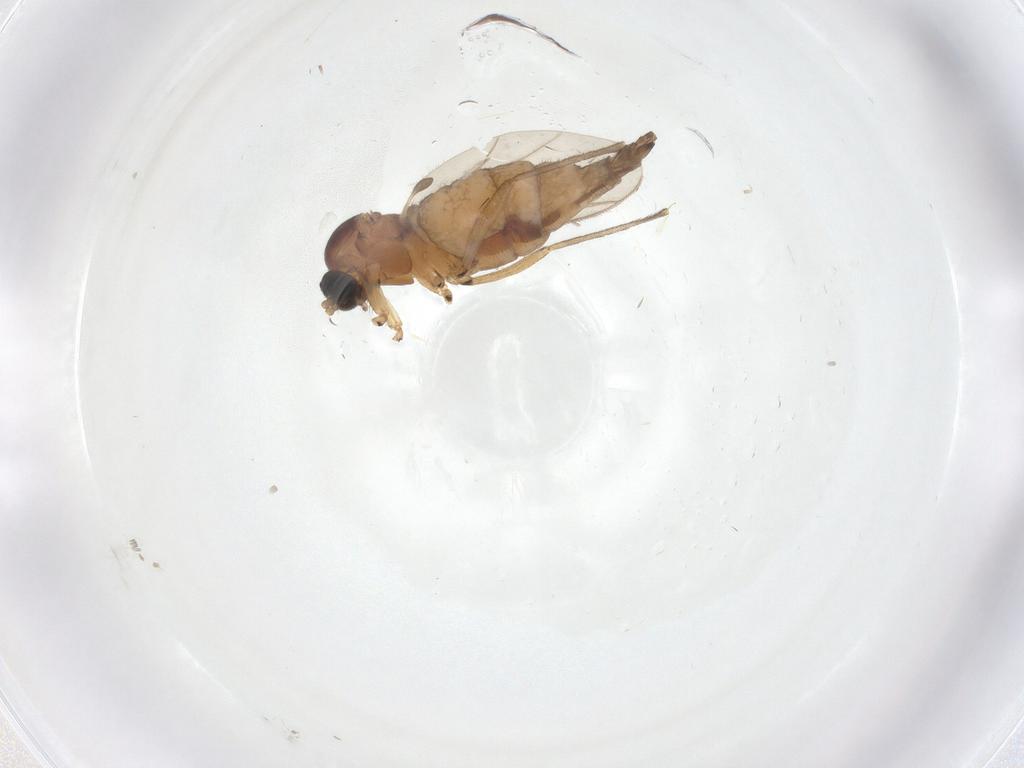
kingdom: Animalia
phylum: Arthropoda
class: Insecta
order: Diptera
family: Sciaridae
